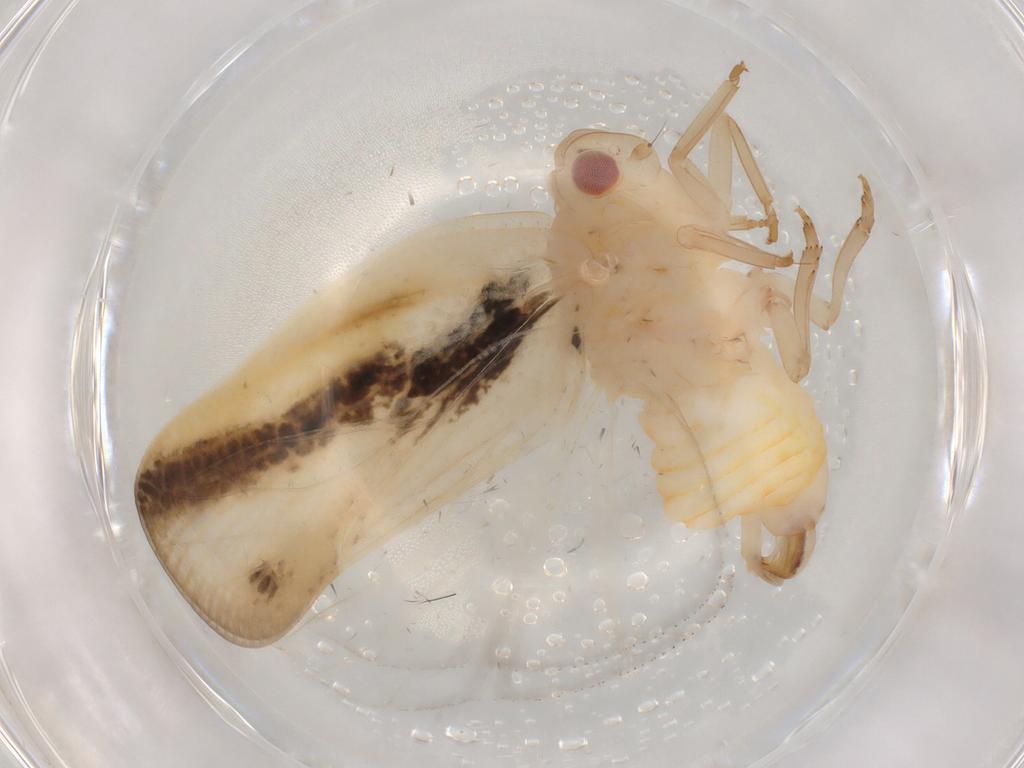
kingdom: Animalia
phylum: Arthropoda
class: Insecta
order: Hemiptera
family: Flatidae
